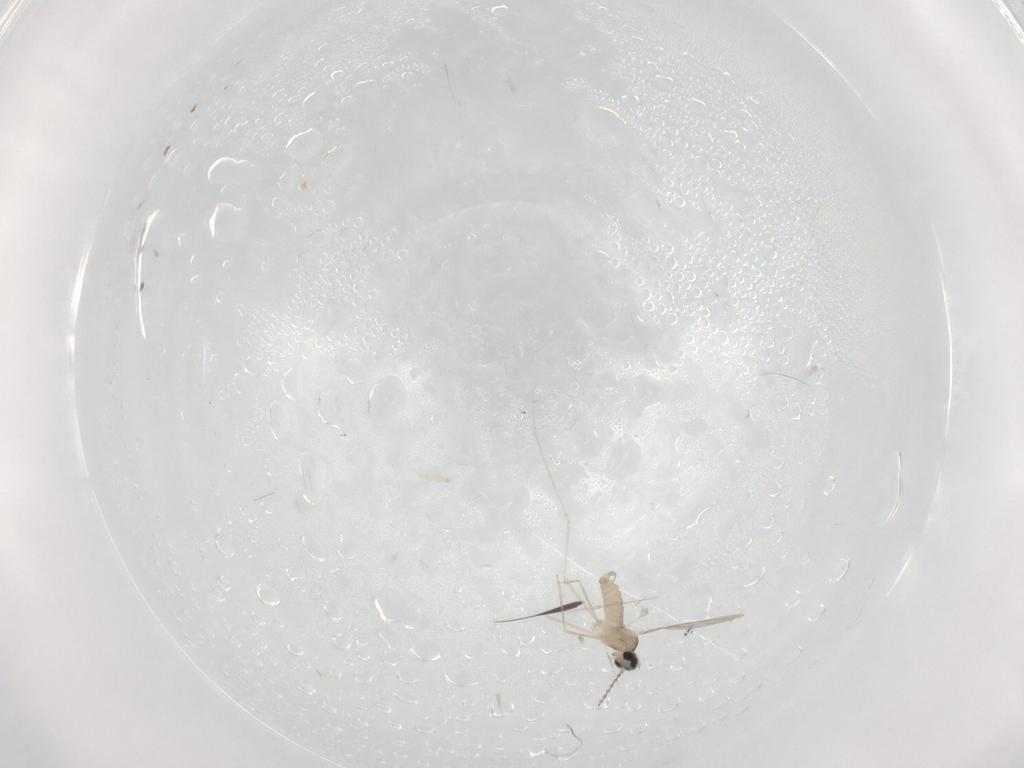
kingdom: Animalia
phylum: Arthropoda
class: Insecta
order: Diptera
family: Cecidomyiidae
